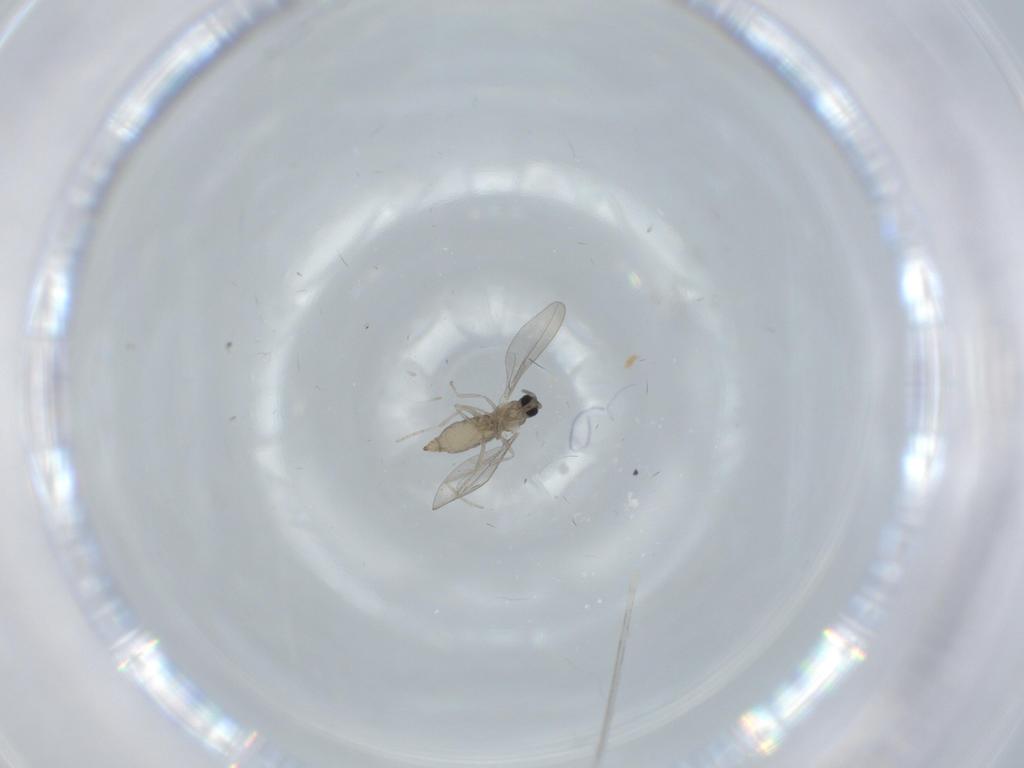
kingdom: Animalia
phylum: Arthropoda
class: Insecta
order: Diptera
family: Cecidomyiidae
